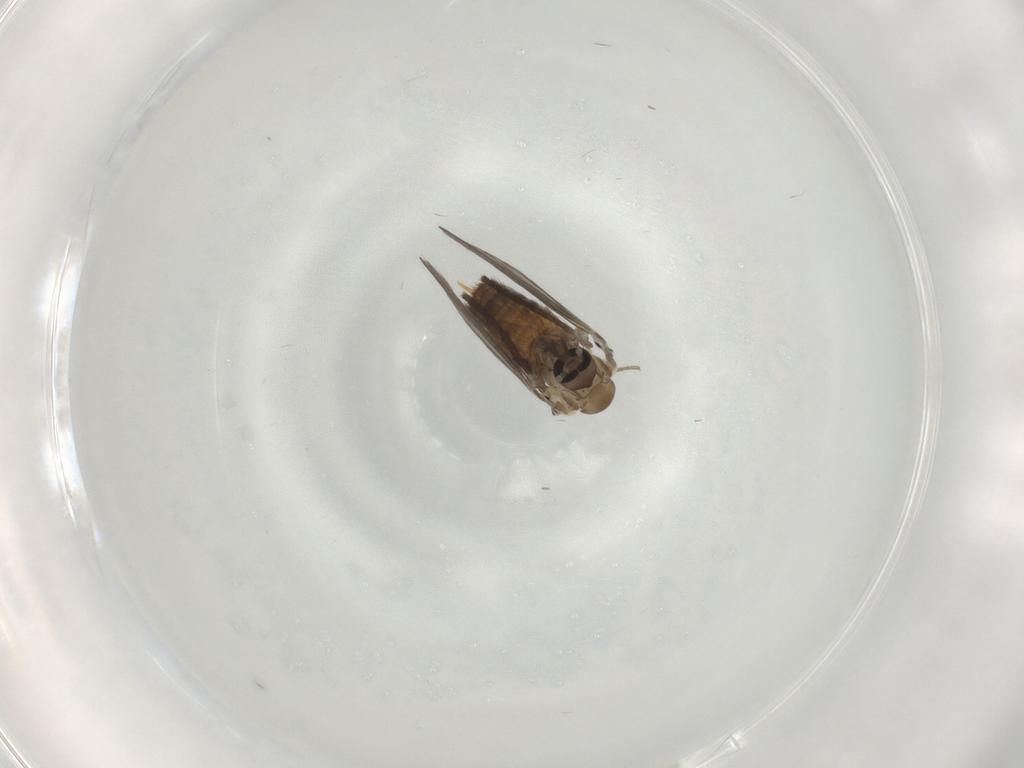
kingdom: Animalia
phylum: Arthropoda
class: Insecta
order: Diptera
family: Psychodidae
